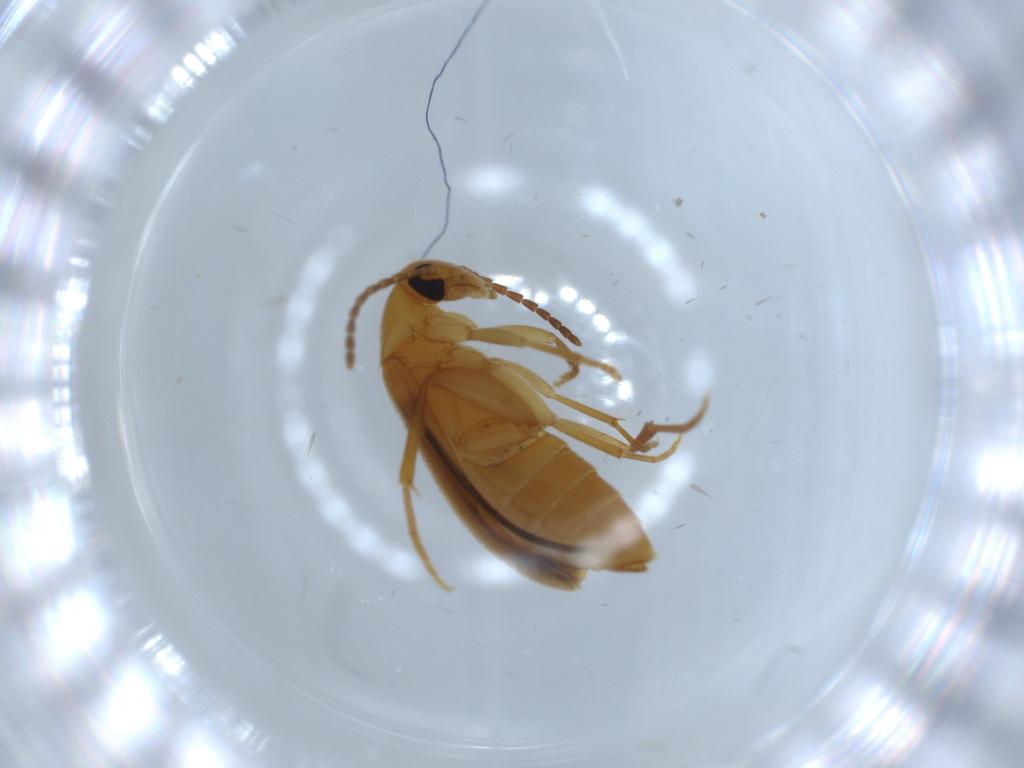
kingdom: Animalia
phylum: Arthropoda
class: Insecta
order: Coleoptera
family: Scraptiidae
